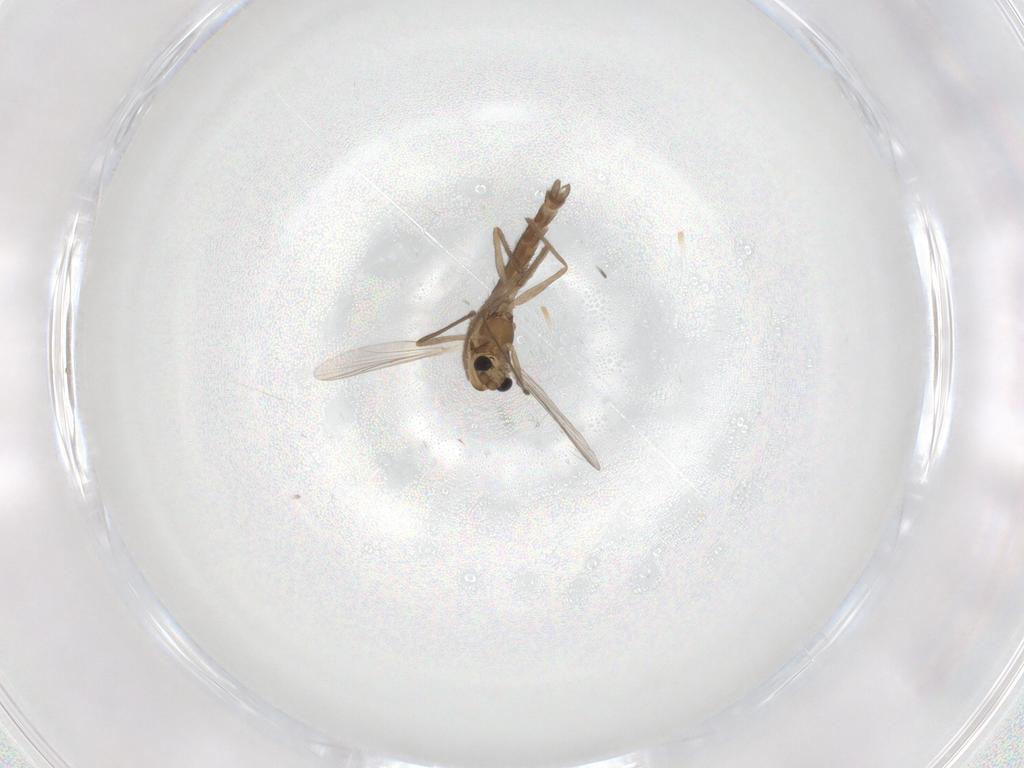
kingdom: Animalia
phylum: Arthropoda
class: Insecta
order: Diptera
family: Chironomidae
